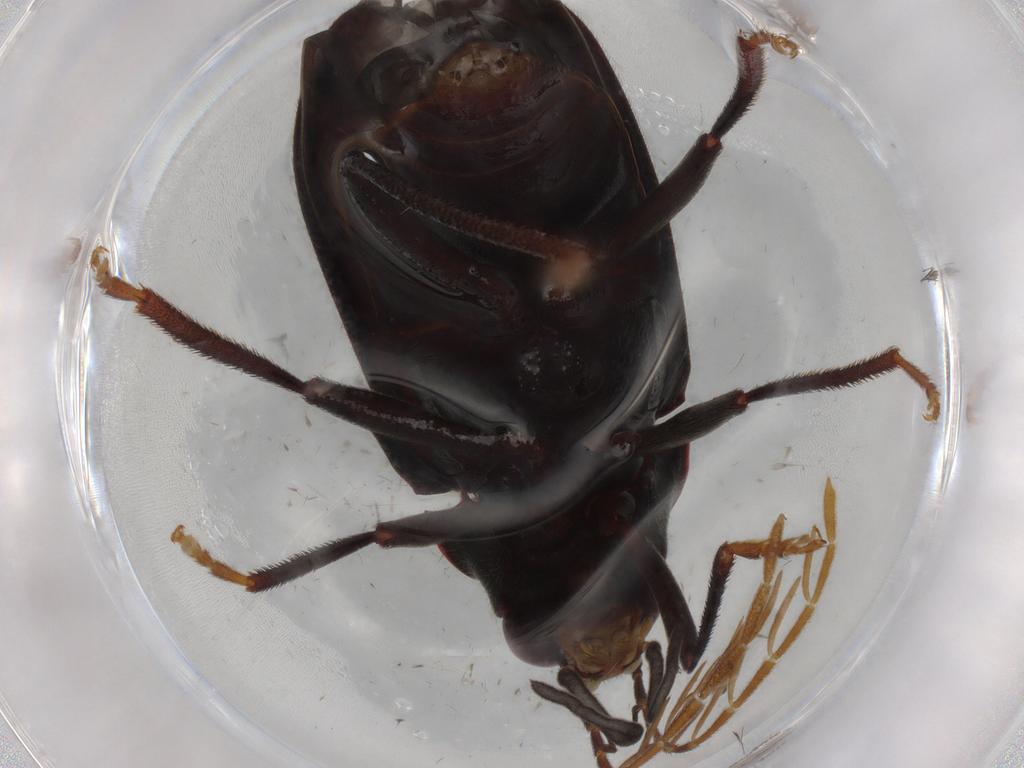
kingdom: Animalia
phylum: Arthropoda
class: Insecta
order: Coleoptera
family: Ptilodactylidae
